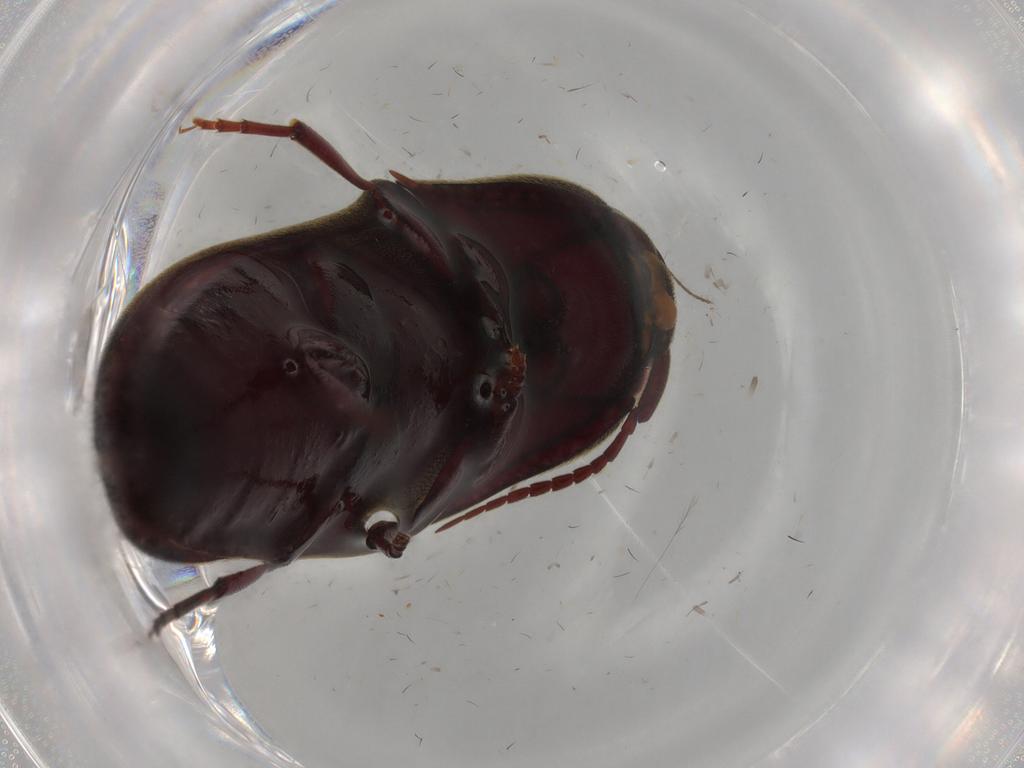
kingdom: Animalia
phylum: Arthropoda
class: Insecta
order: Coleoptera
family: Eucnemidae
